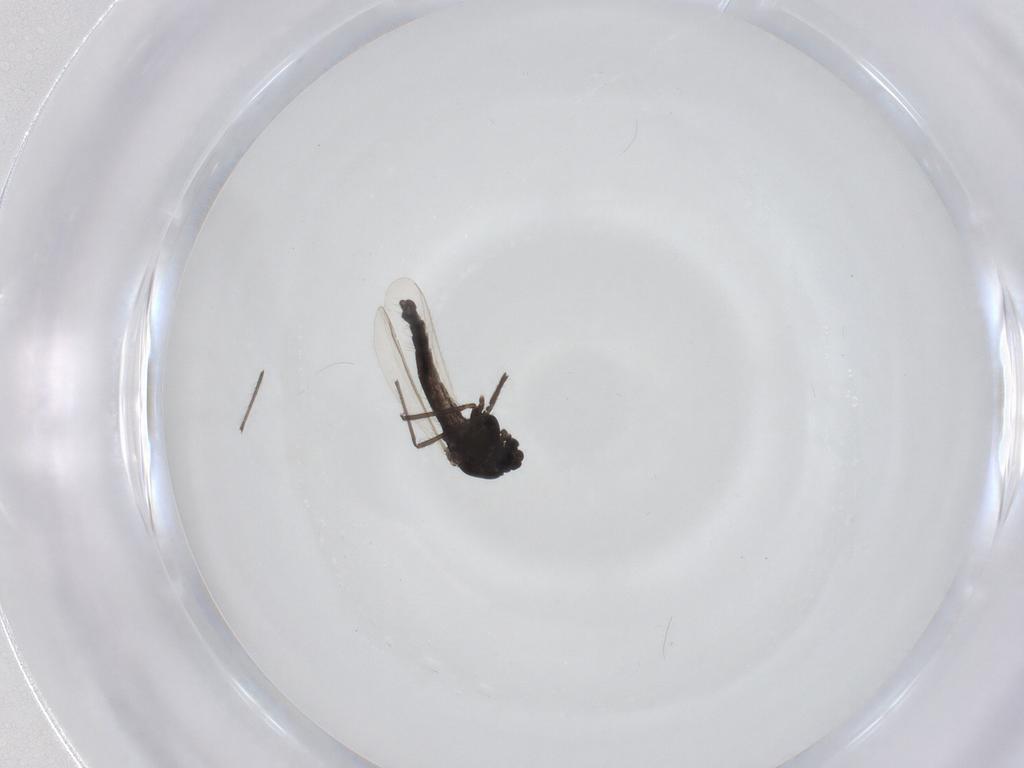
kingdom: Animalia
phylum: Arthropoda
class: Insecta
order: Diptera
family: Chironomidae
